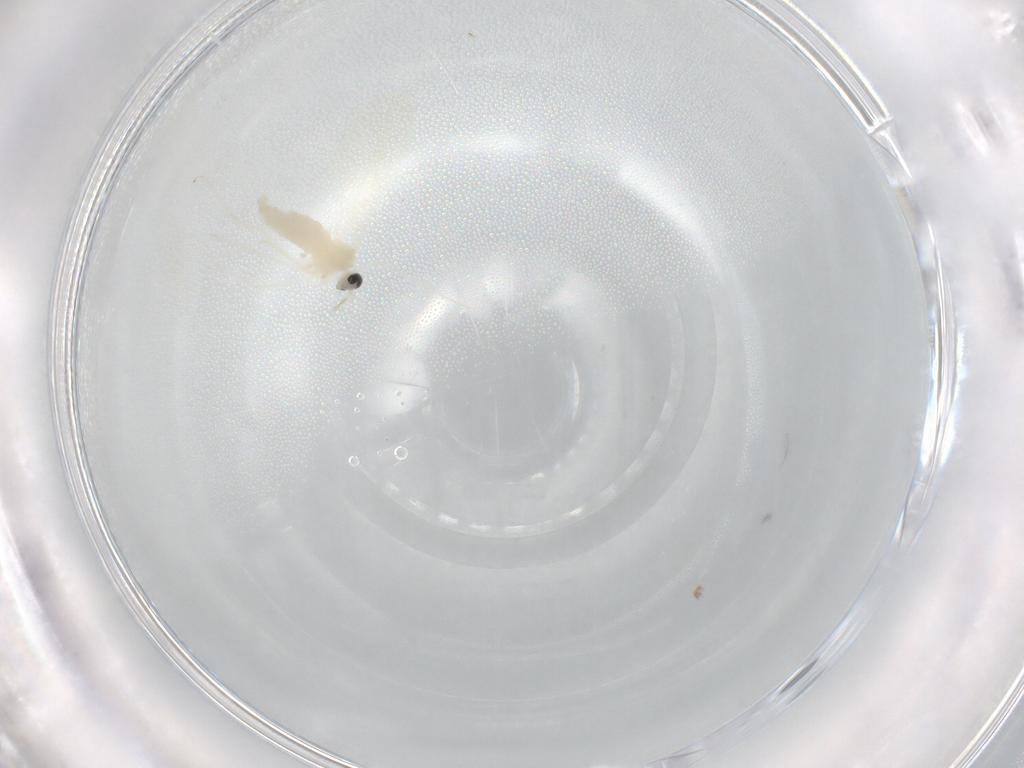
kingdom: Animalia
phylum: Arthropoda
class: Insecta
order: Diptera
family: Cecidomyiidae
